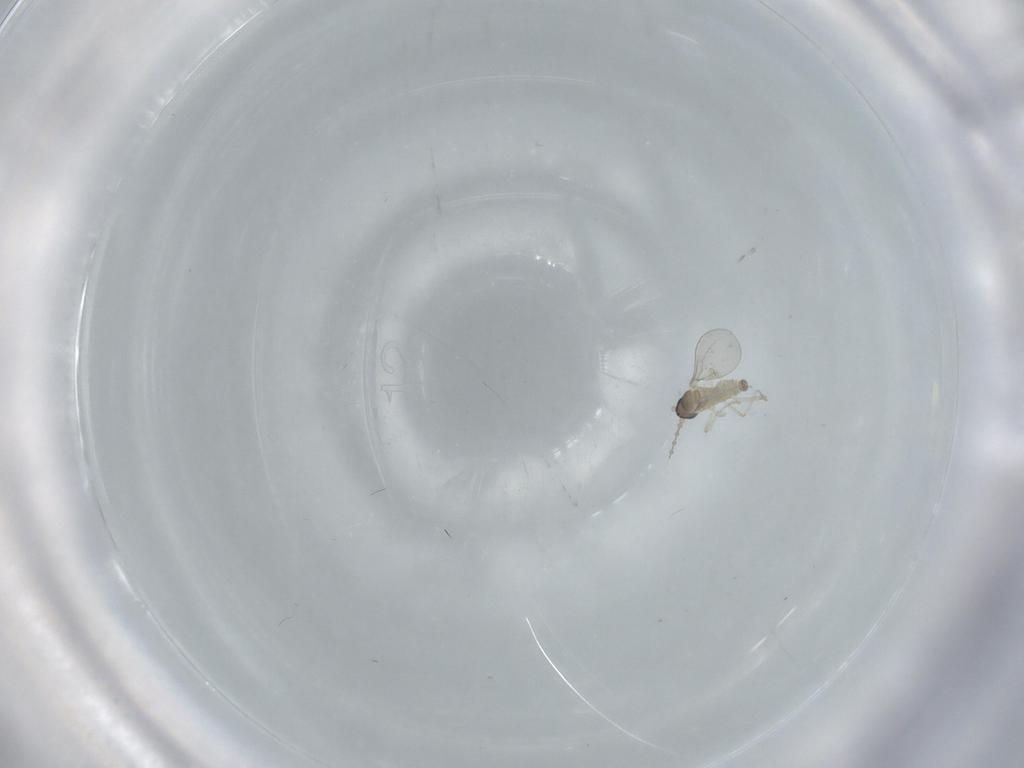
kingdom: Animalia
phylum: Arthropoda
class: Insecta
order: Diptera
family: Cecidomyiidae
